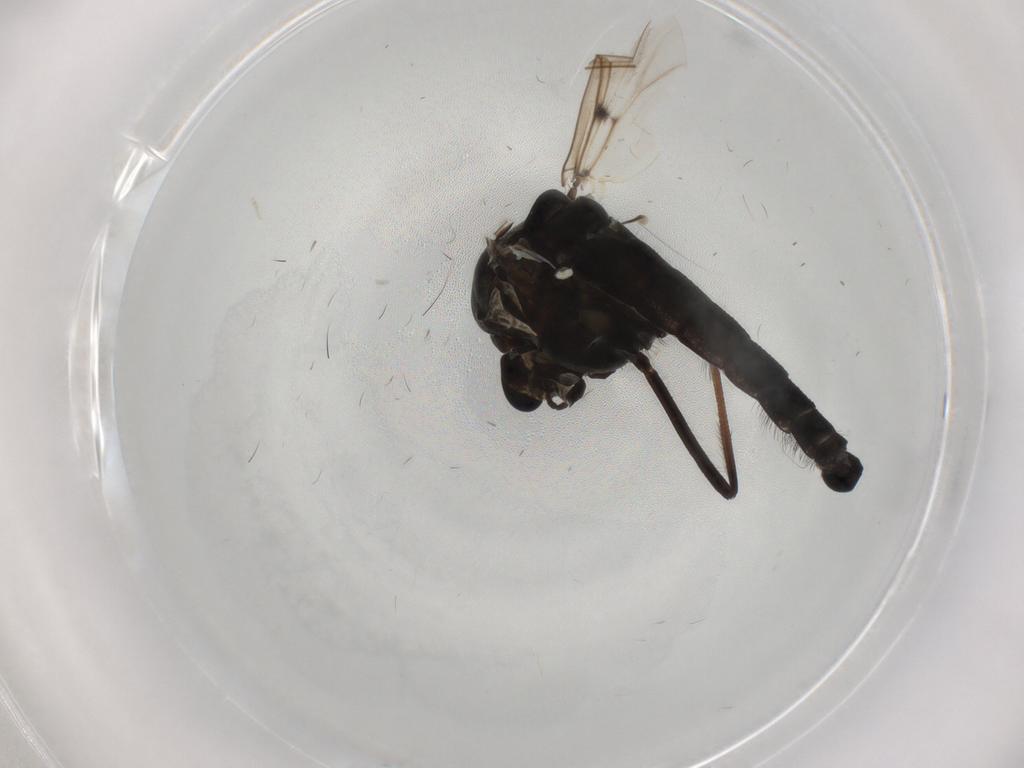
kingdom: Animalia
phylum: Arthropoda
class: Insecta
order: Diptera
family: Chironomidae
